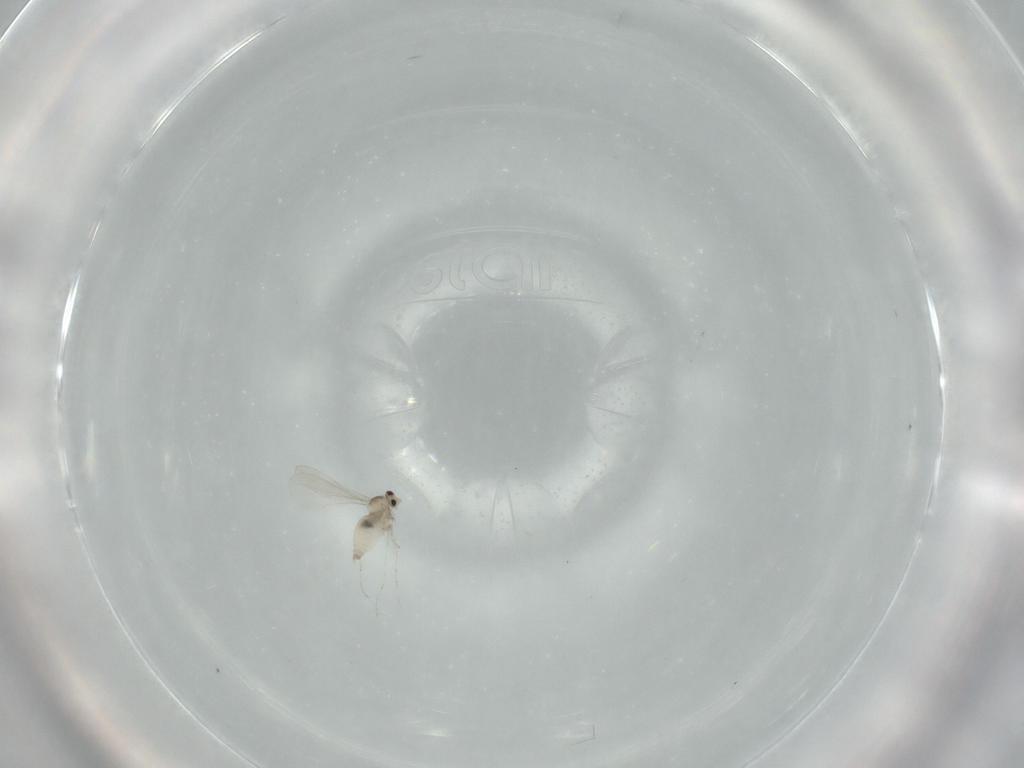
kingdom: Animalia
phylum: Arthropoda
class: Insecta
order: Diptera
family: Cecidomyiidae
